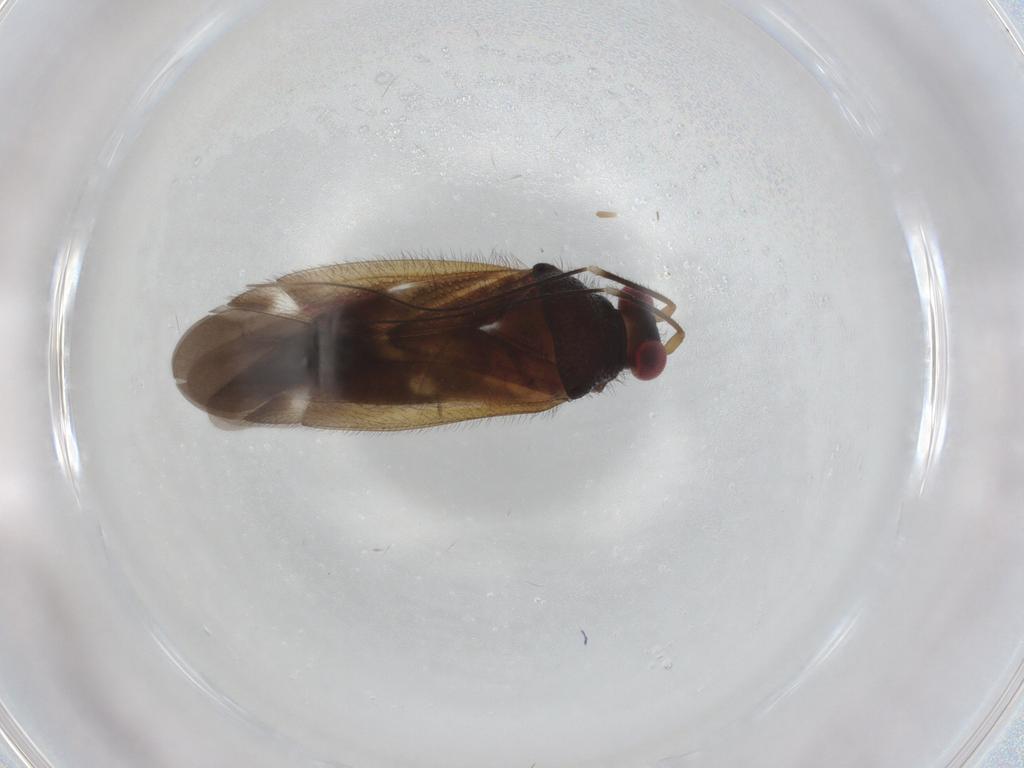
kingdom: Animalia
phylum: Arthropoda
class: Insecta
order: Hemiptera
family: Miridae
